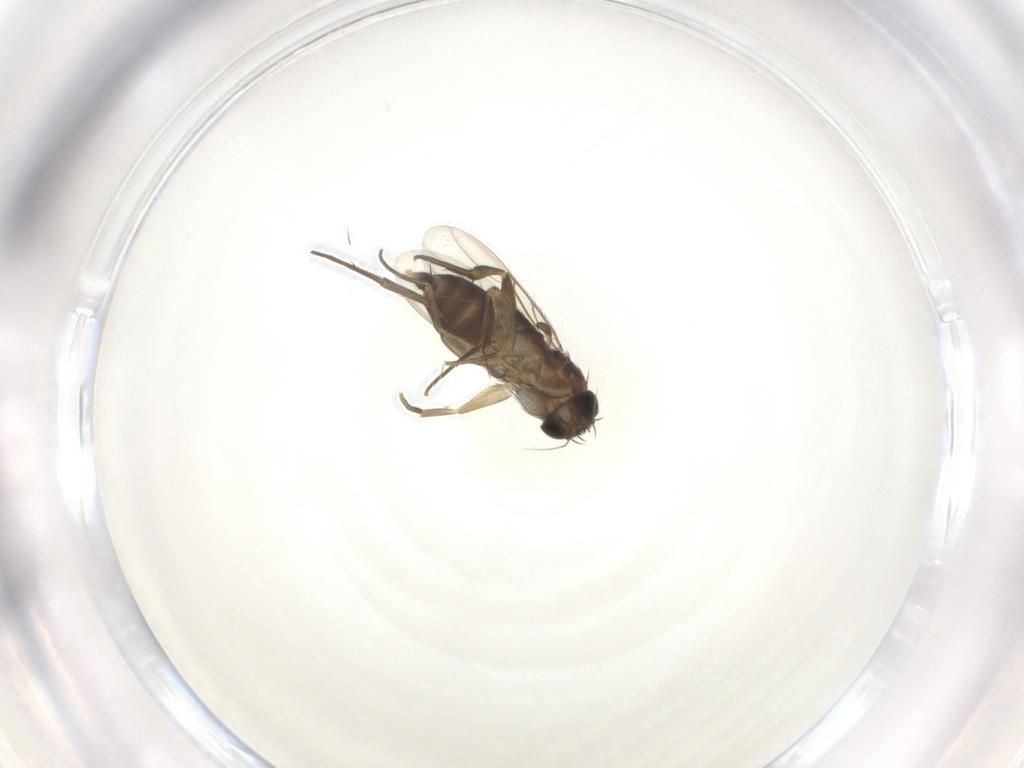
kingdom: Animalia
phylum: Arthropoda
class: Insecta
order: Diptera
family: Phoridae
